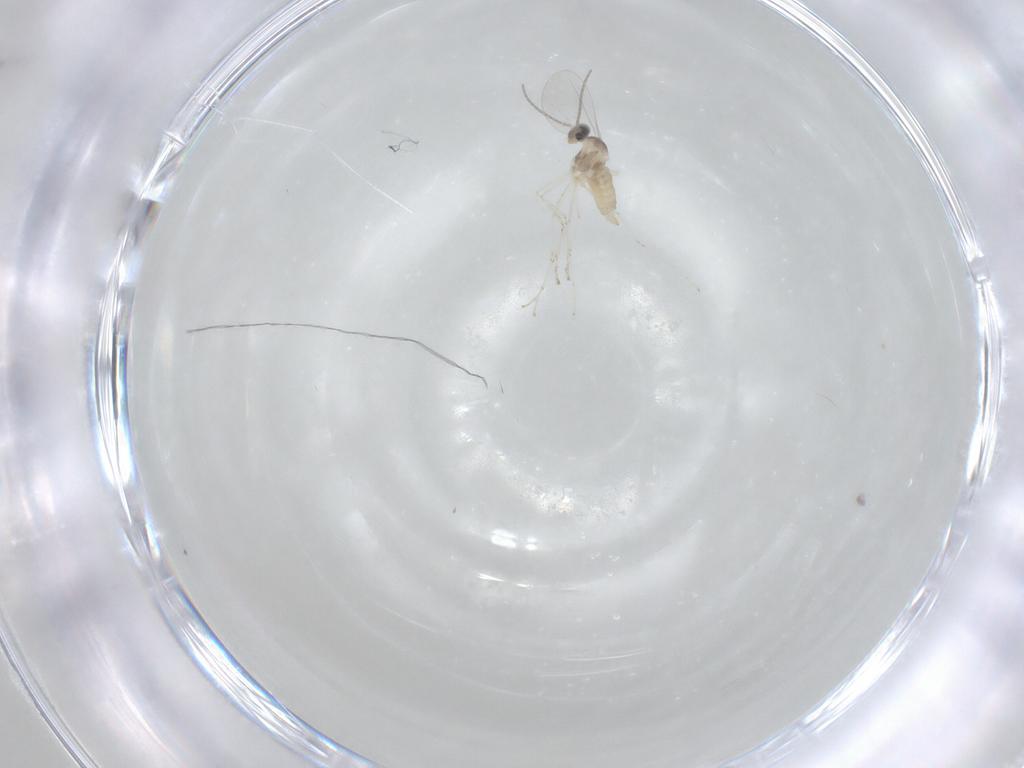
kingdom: Animalia
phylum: Arthropoda
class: Insecta
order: Diptera
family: Cecidomyiidae
